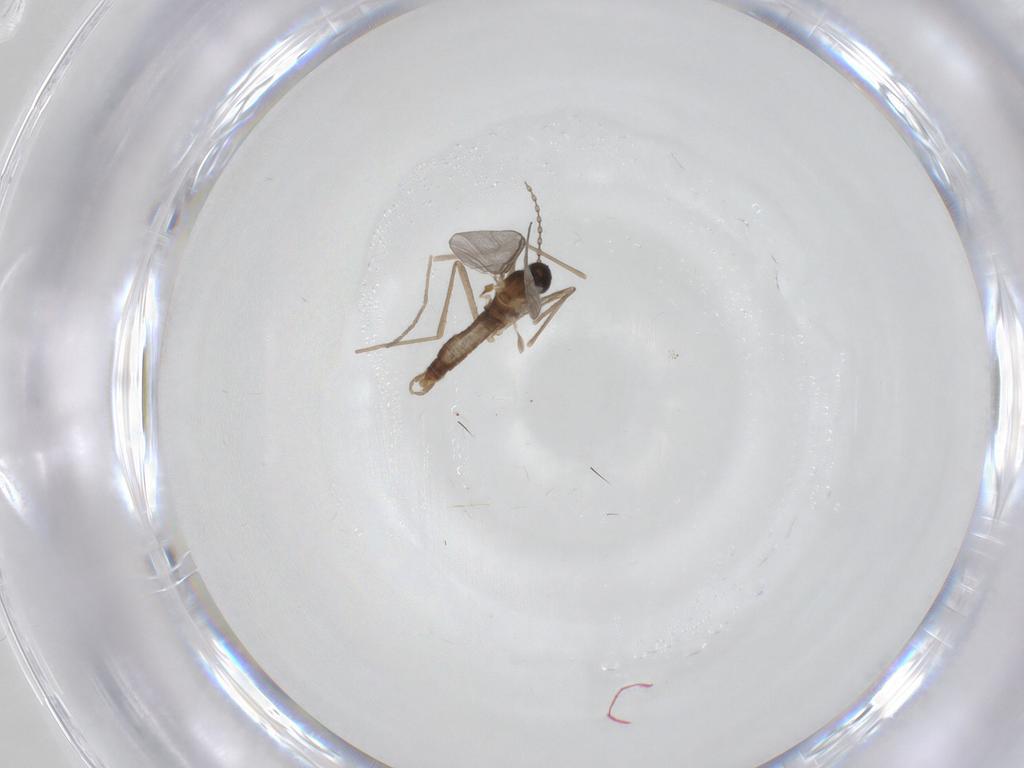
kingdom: Animalia
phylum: Arthropoda
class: Insecta
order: Diptera
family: Cecidomyiidae
